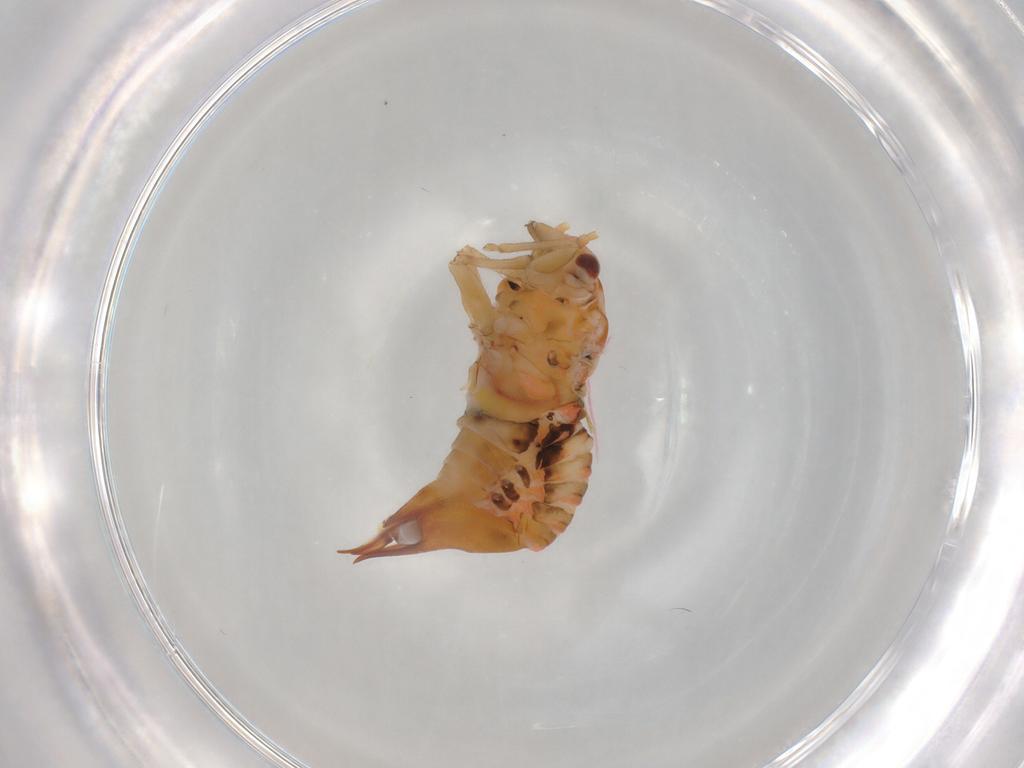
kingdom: Animalia
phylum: Arthropoda
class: Insecta
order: Hemiptera
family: Psyllidae
